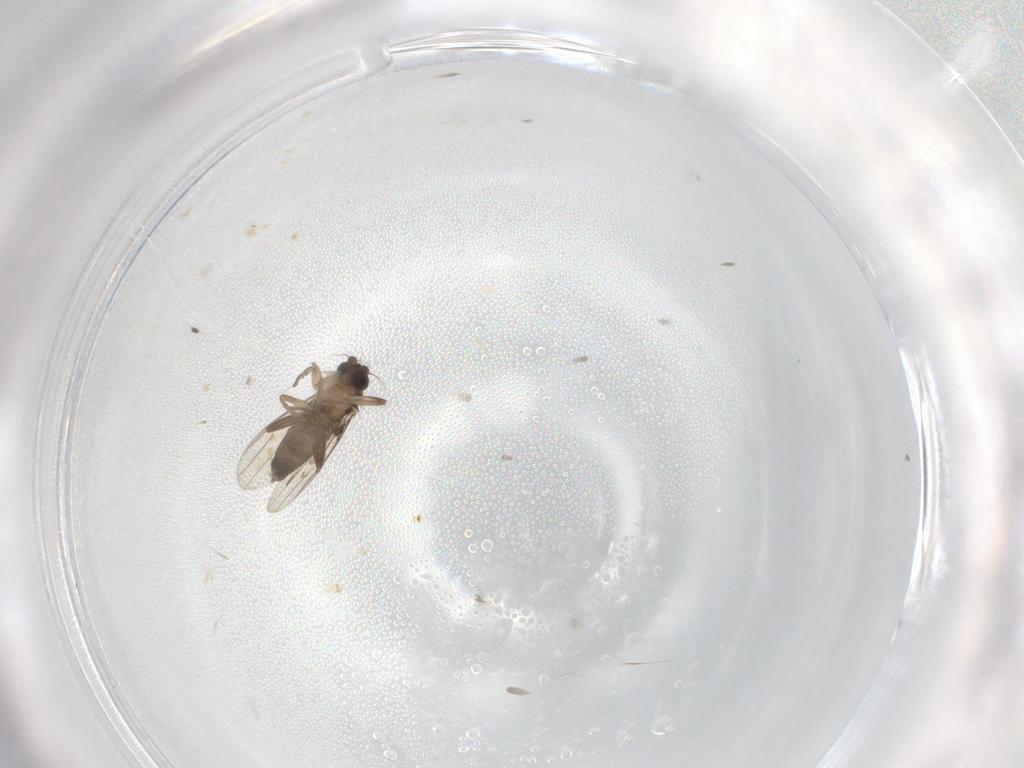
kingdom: Animalia
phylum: Arthropoda
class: Insecta
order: Diptera
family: Phoridae
